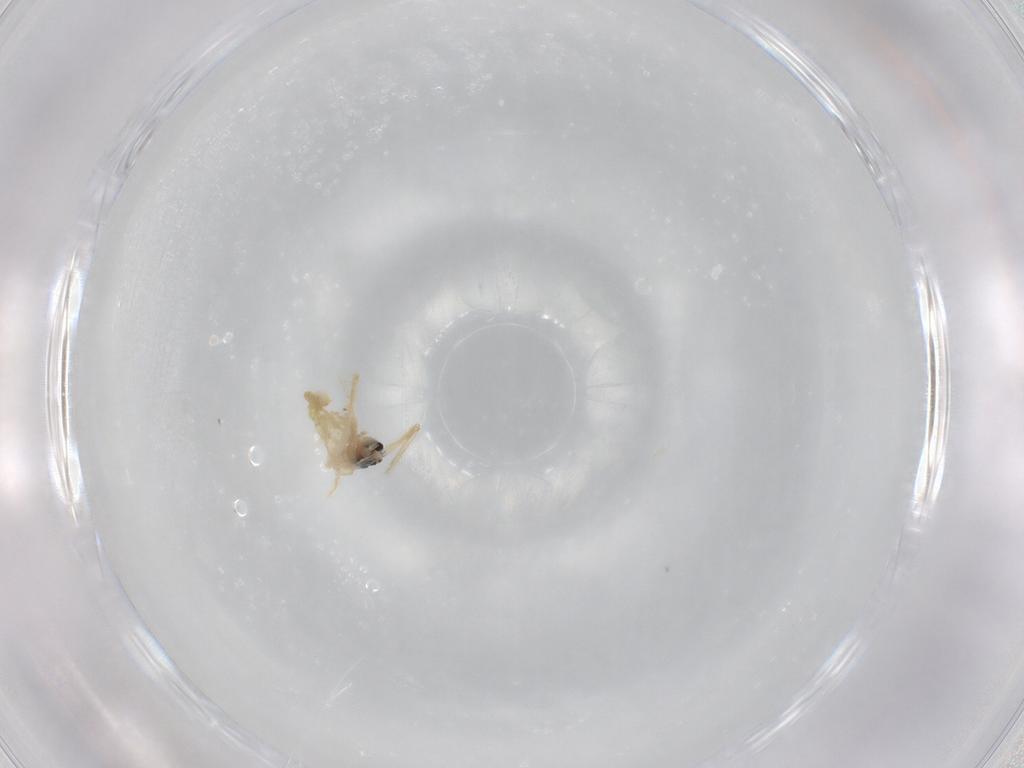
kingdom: Animalia
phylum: Arthropoda
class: Insecta
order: Diptera
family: Chironomidae
